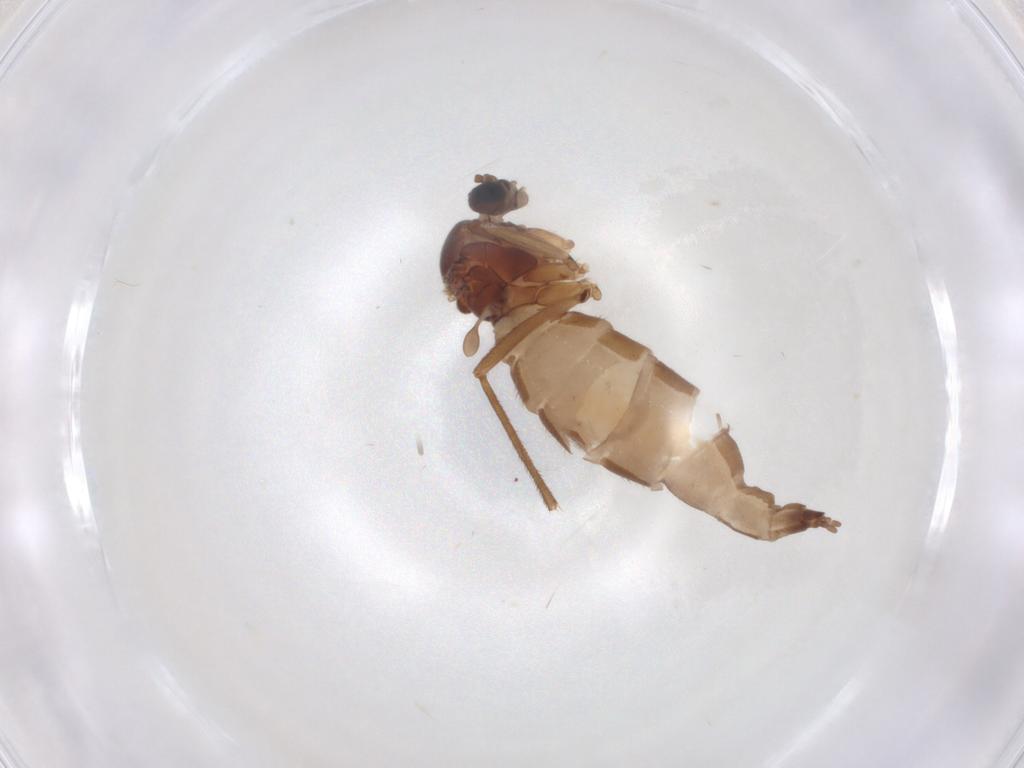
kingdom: Animalia
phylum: Arthropoda
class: Insecta
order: Diptera
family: Sciaridae
